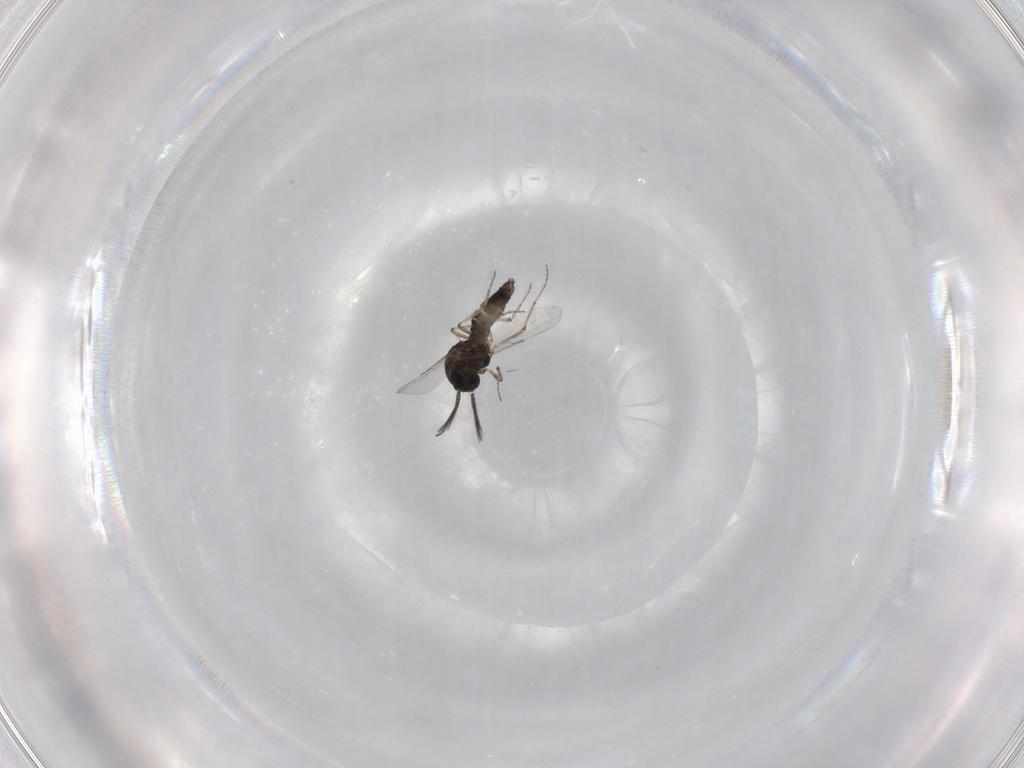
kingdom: Animalia
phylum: Arthropoda
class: Insecta
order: Diptera
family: Ceratopogonidae
